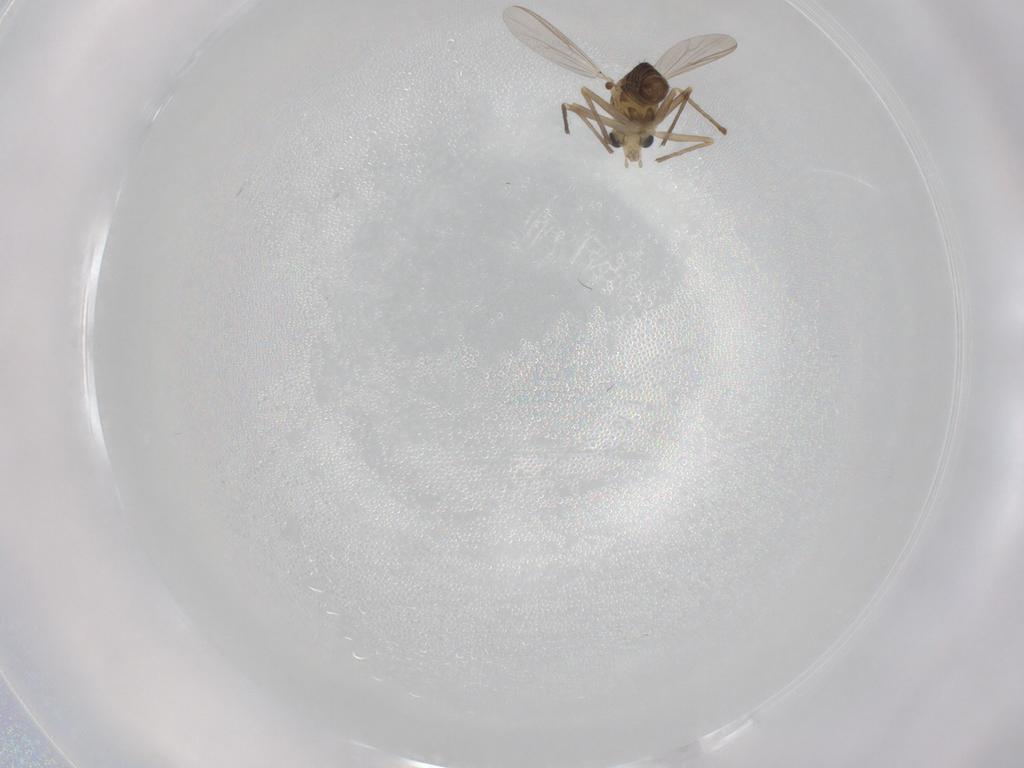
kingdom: Animalia
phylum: Arthropoda
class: Insecta
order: Diptera
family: Chironomidae
